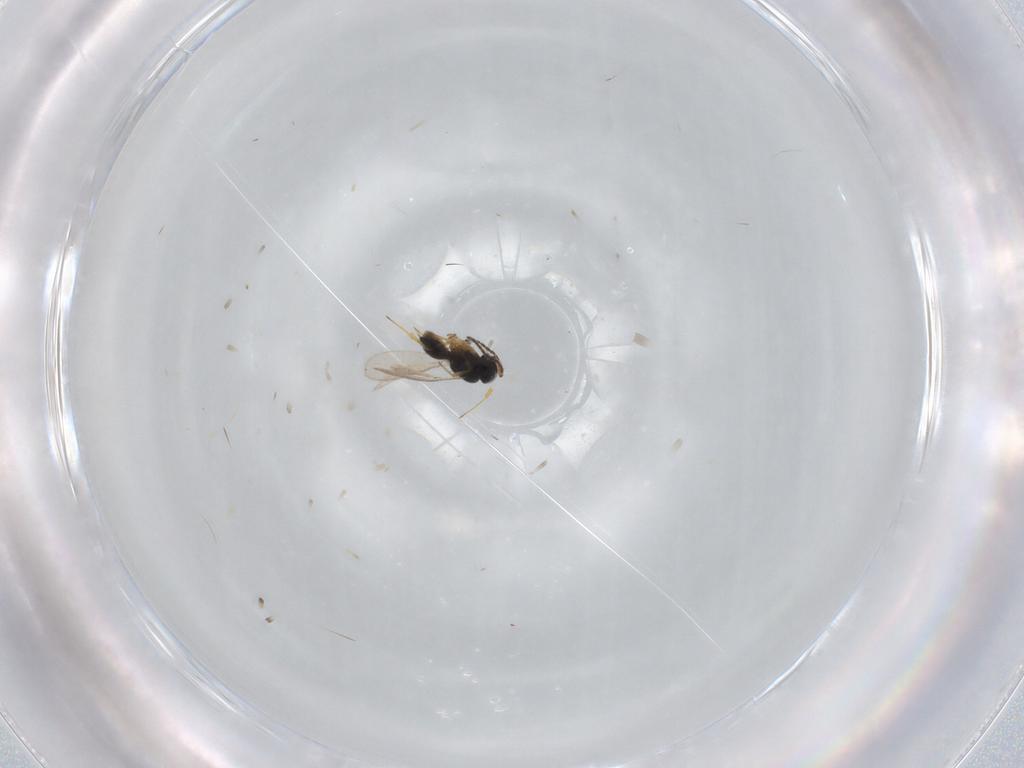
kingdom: Animalia
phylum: Arthropoda
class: Insecta
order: Hymenoptera
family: Scelionidae
